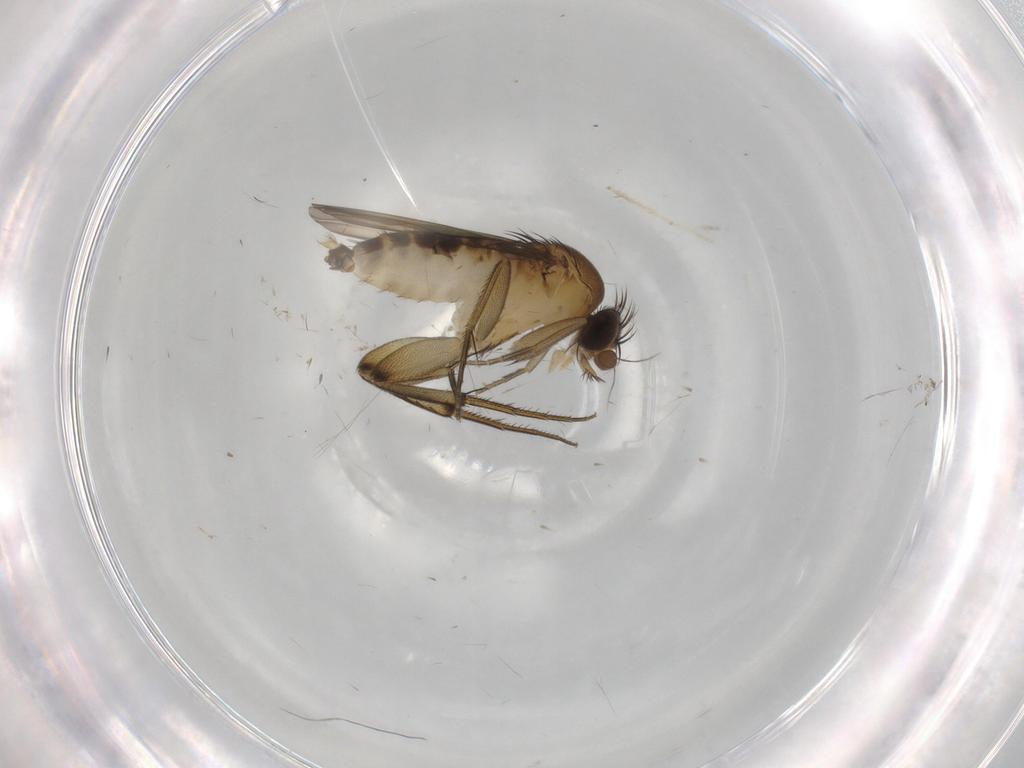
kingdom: Animalia
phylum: Arthropoda
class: Insecta
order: Diptera
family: Phoridae
